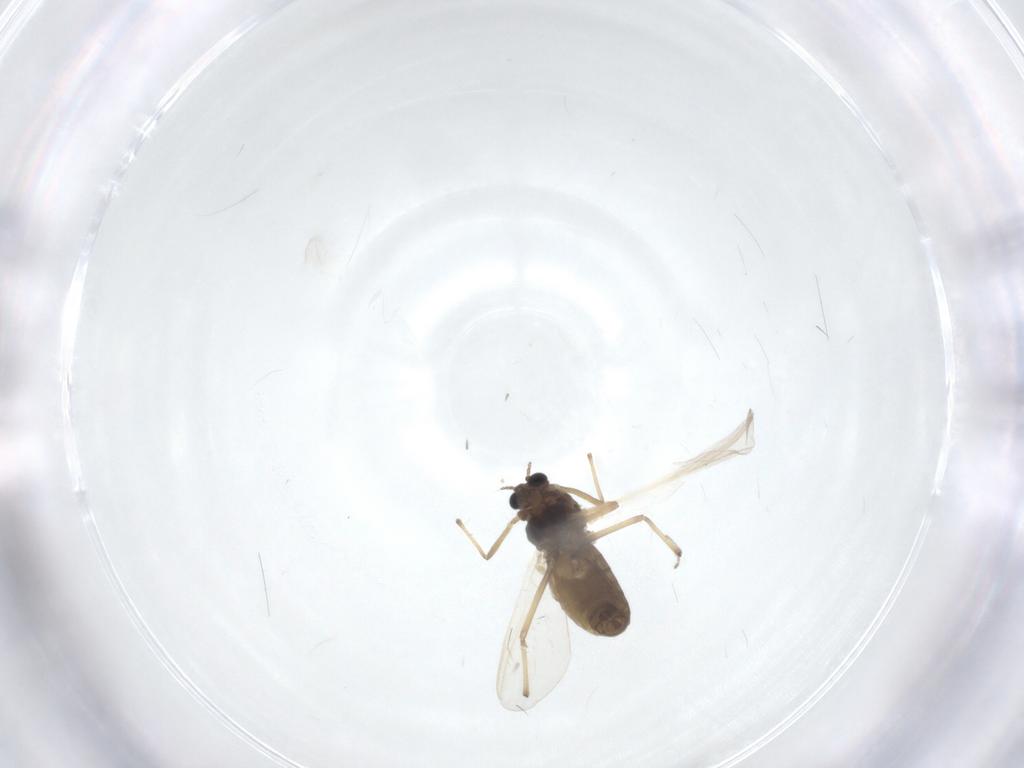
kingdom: Animalia
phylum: Arthropoda
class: Insecta
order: Diptera
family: Chironomidae
